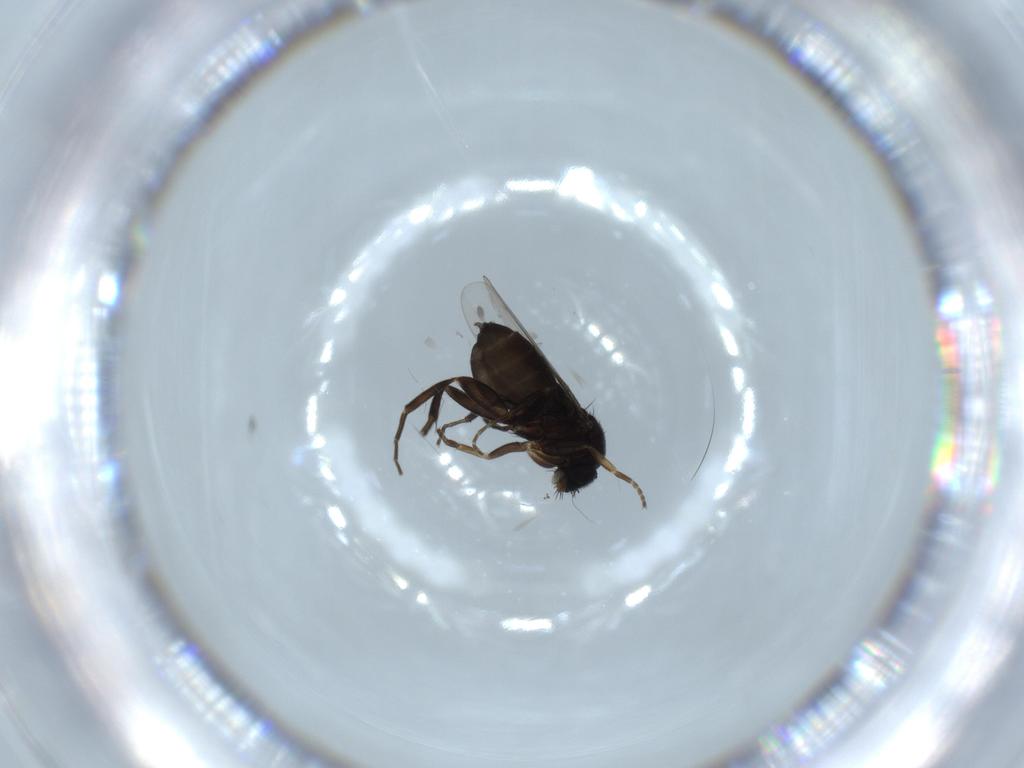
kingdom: Animalia
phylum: Arthropoda
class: Insecta
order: Diptera
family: Phoridae
